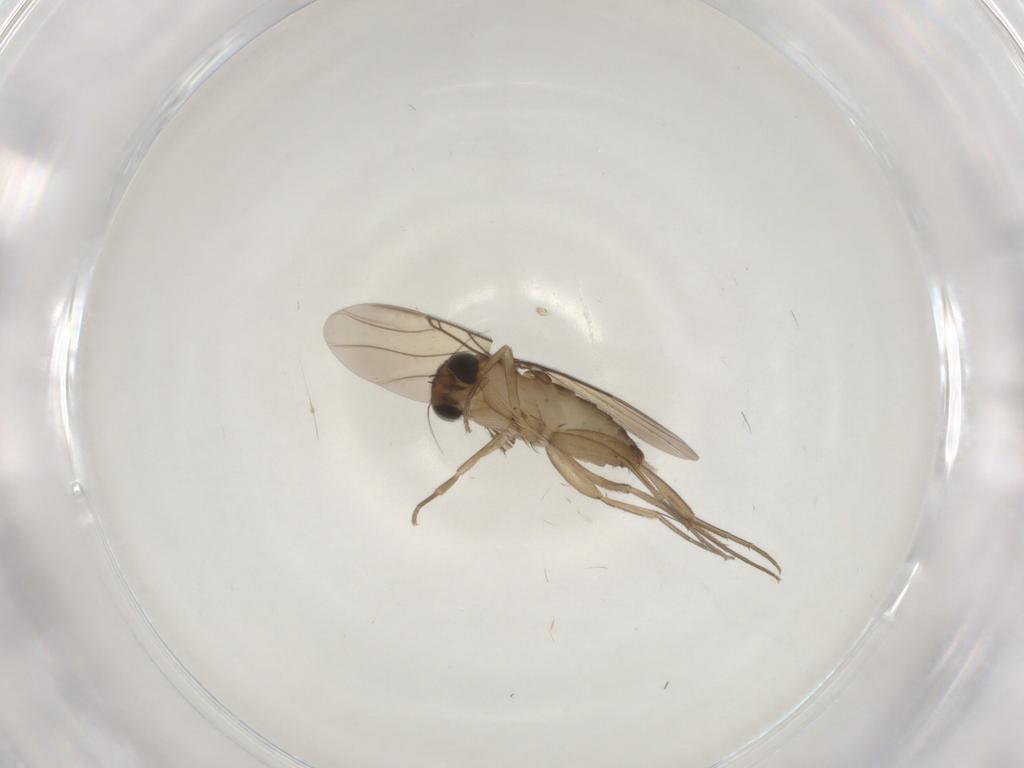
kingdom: Animalia
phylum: Arthropoda
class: Insecta
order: Diptera
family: Phoridae
